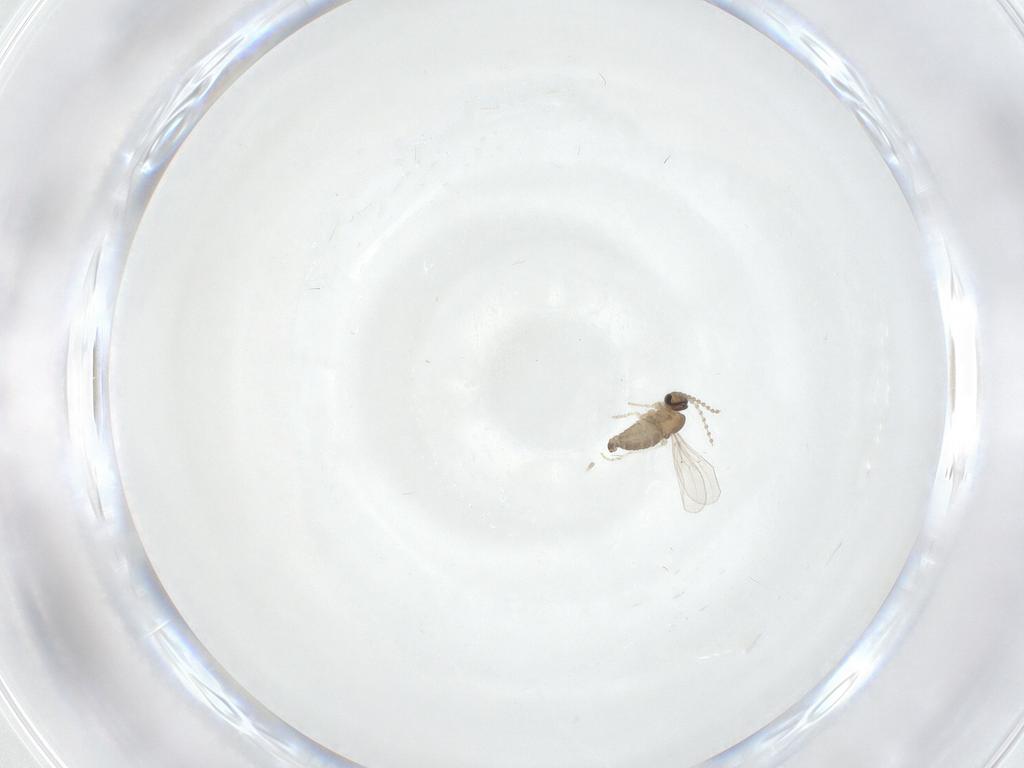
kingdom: Animalia
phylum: Arthropoda
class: Insecta
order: Diptera
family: Cecidomyiidae
